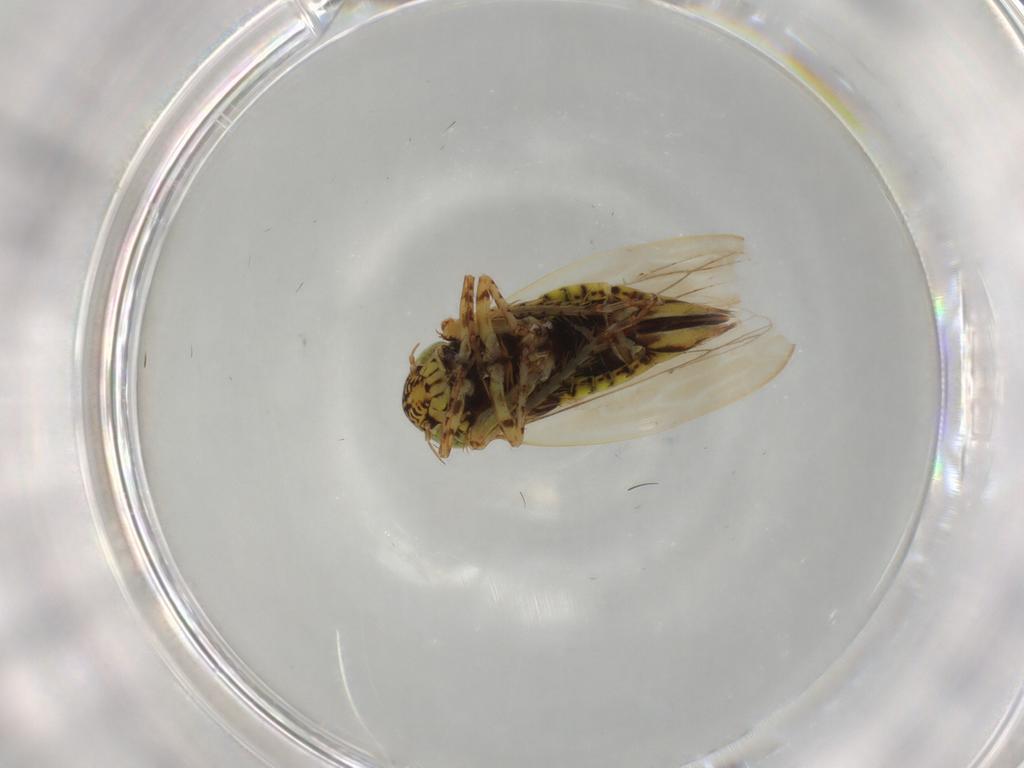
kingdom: Animalia
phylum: Arthropoda
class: Insecta
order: Hemiptera
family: Cicadellidae
